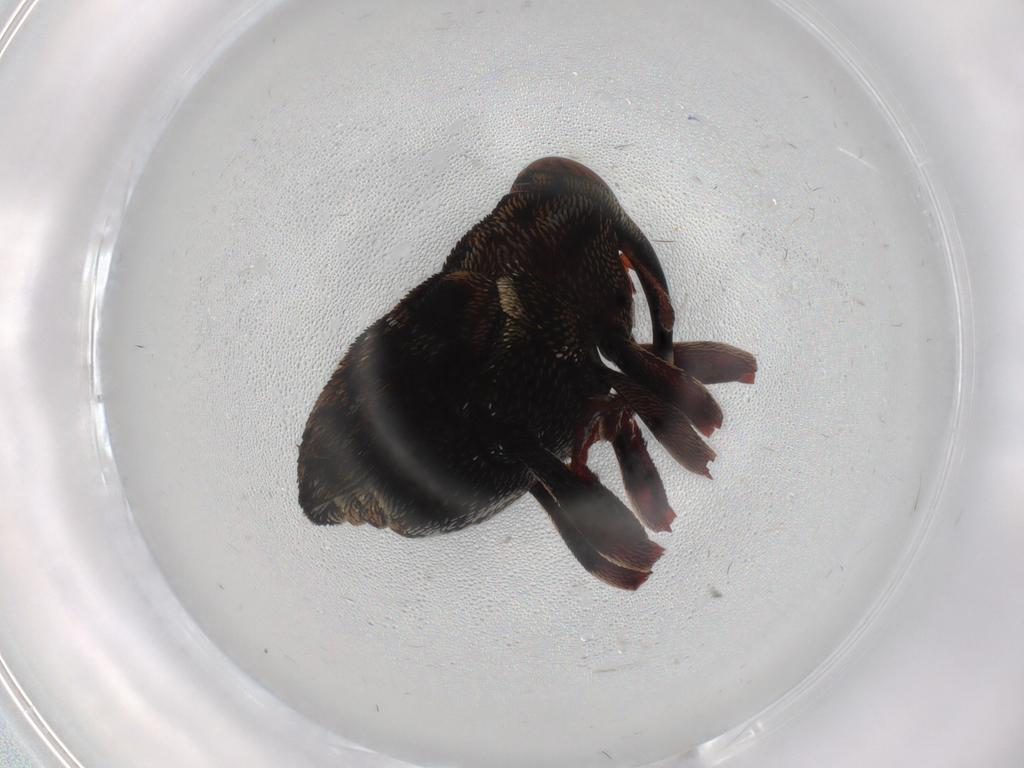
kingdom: Animalia
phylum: Arthropoda
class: Insecta
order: Coleoptera
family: Curculionidae
